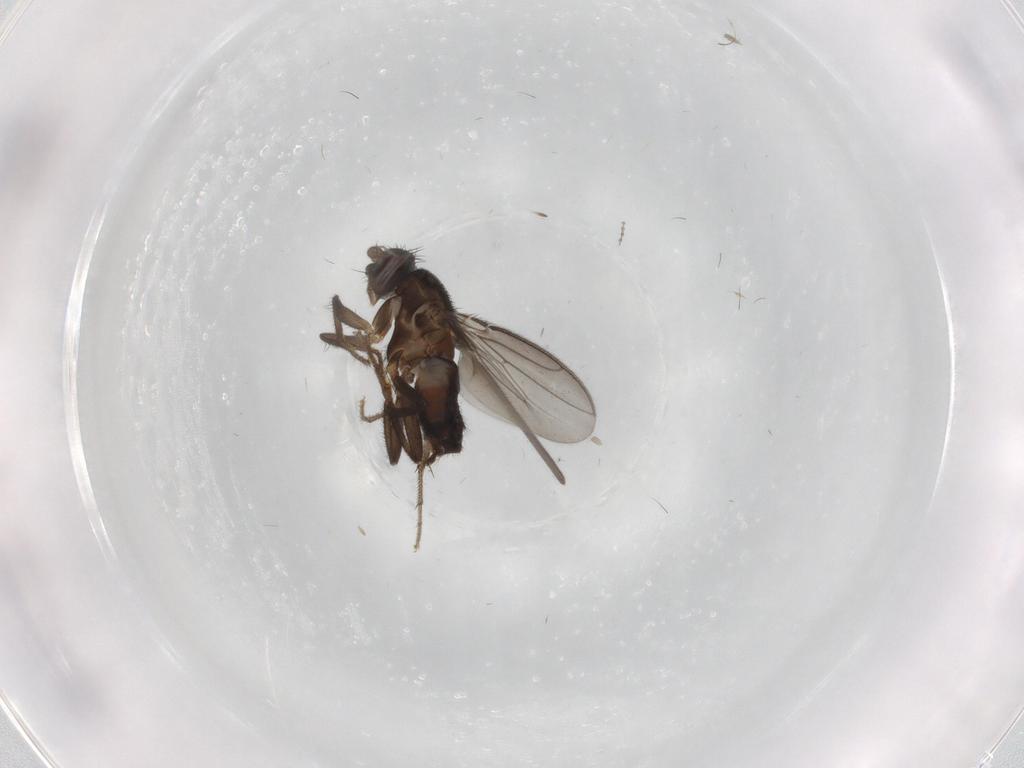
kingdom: Animalia
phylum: Arthropoda
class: Insecta
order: Diptera
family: Sphaeroceridae
